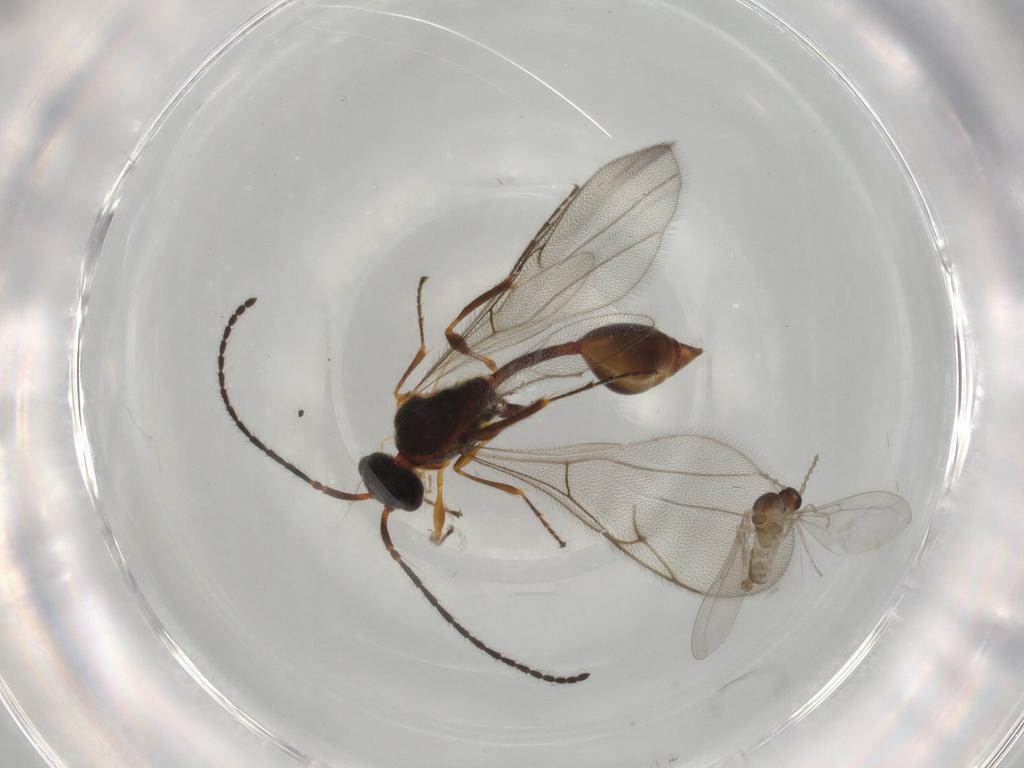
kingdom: Animalia
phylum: Arthropoda
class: Insecta
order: Diptera
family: Cecidomyiidae
